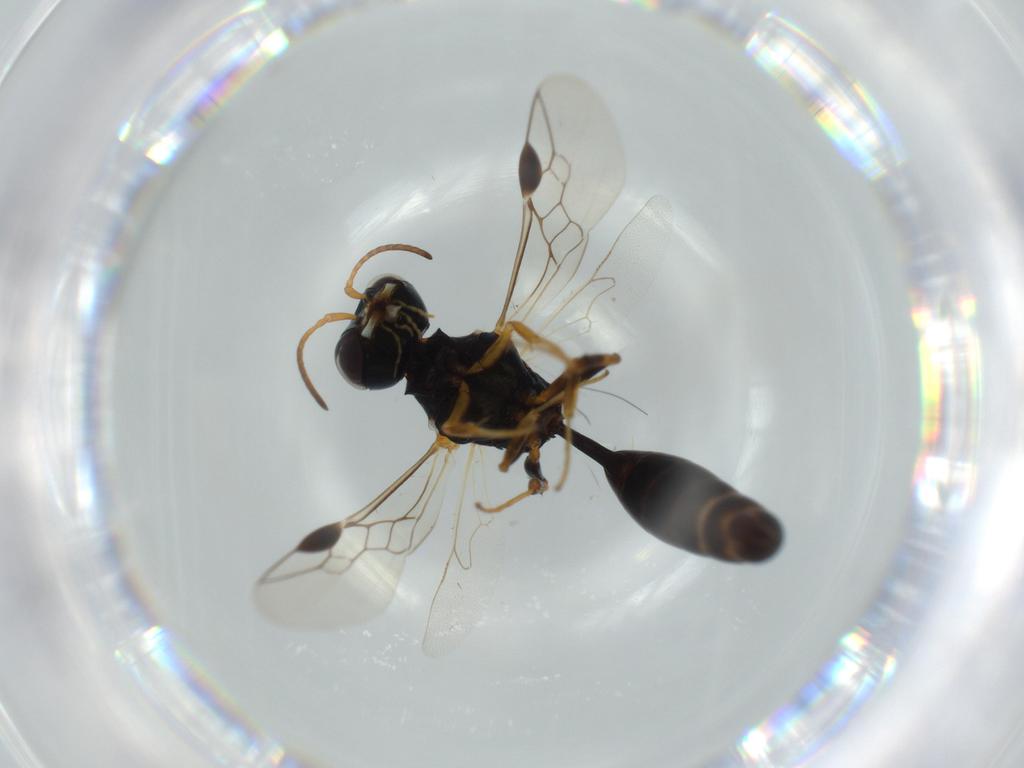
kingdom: Animalia
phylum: Arthropoda
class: Insecta
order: Hymenoptera
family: Crabronidae
